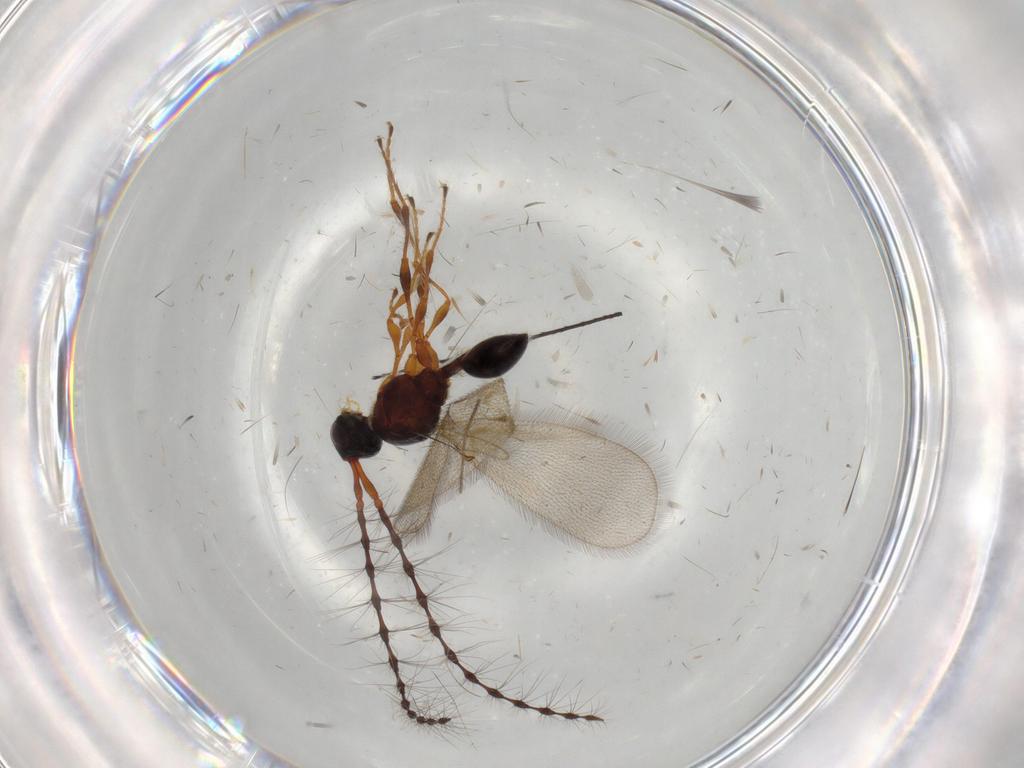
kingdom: Animalia
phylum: Arthropoda
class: Insecta
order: Hymenoptera
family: Diapriidae
